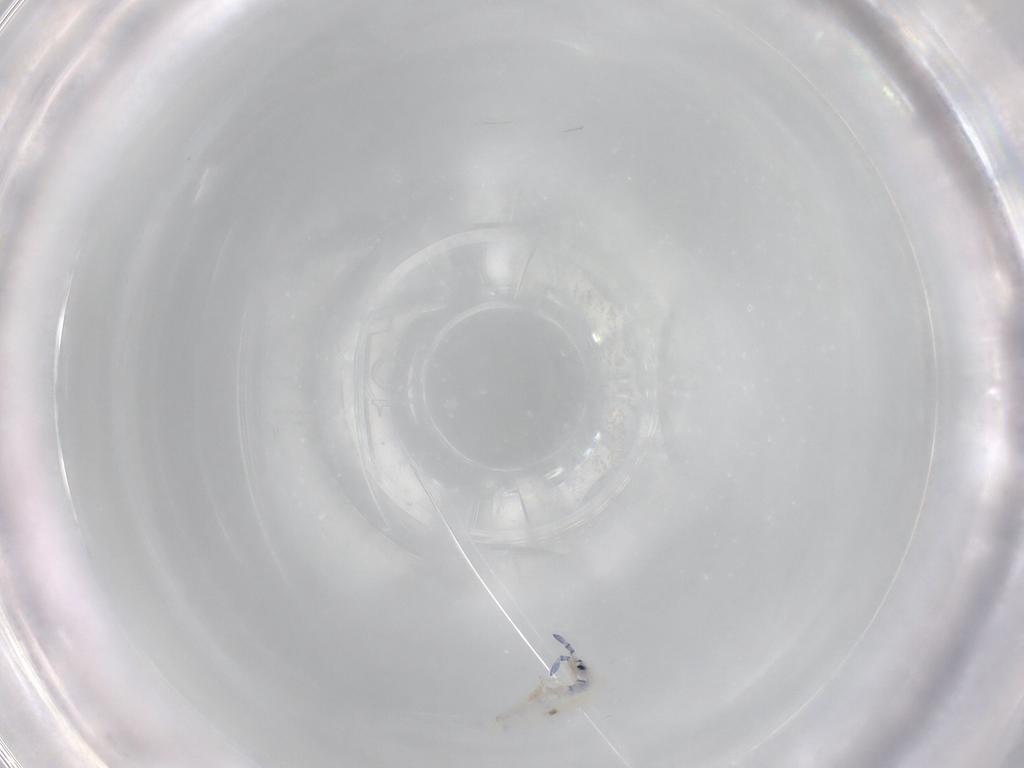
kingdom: Animalia
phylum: Arthropoda
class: Collembola
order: Entomobryomorpha
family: Entomobryidae
